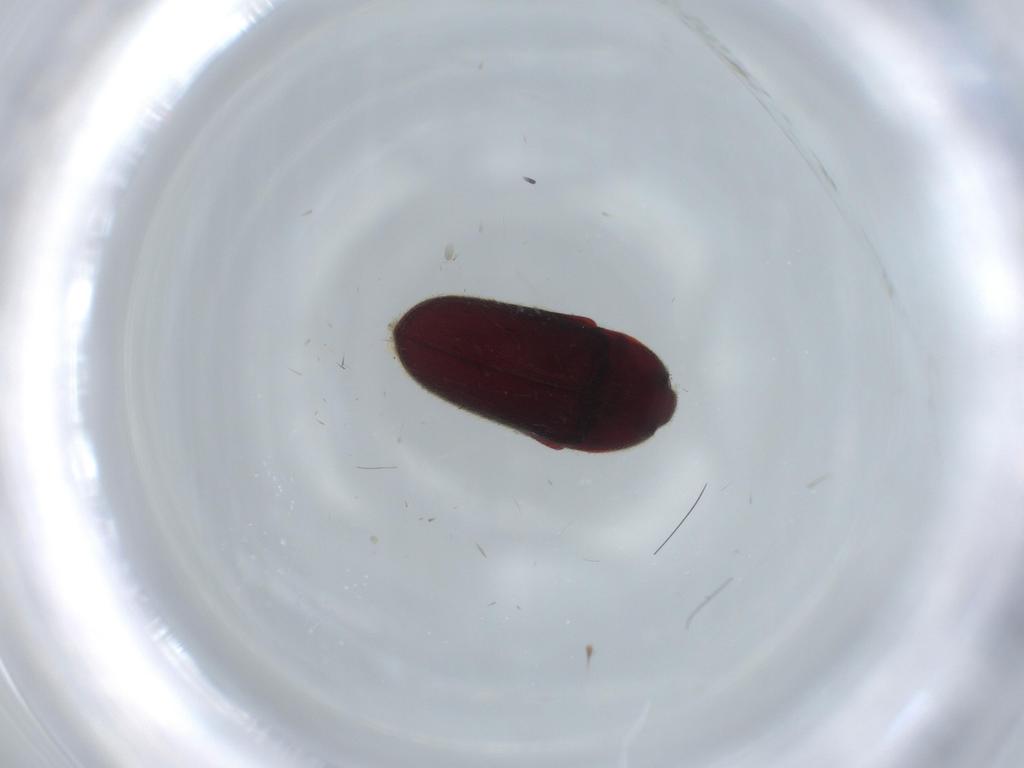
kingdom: Animalia
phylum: Arthropoda
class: Insecta
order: Coleoptera
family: Throscidae
